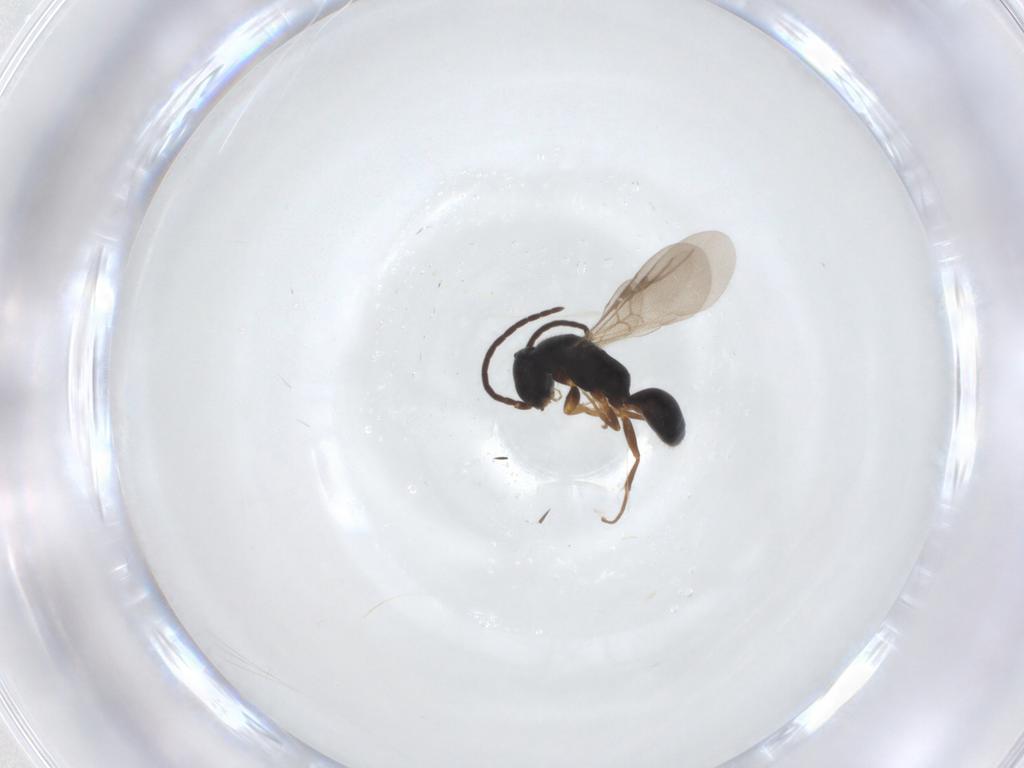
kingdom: Animalia
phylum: Arthropoda
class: Insecta
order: Hymenoptera
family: Bethylidae
